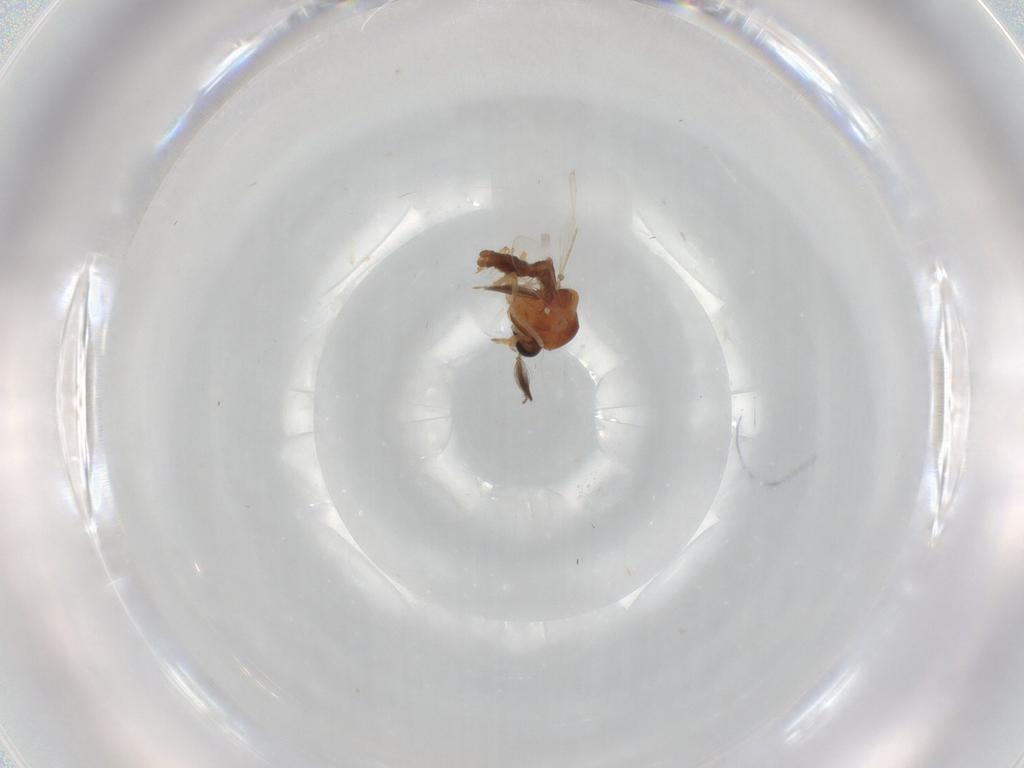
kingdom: Animalia
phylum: Arthropoda
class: Insecta
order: Diptera
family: Ceratopogonidae
